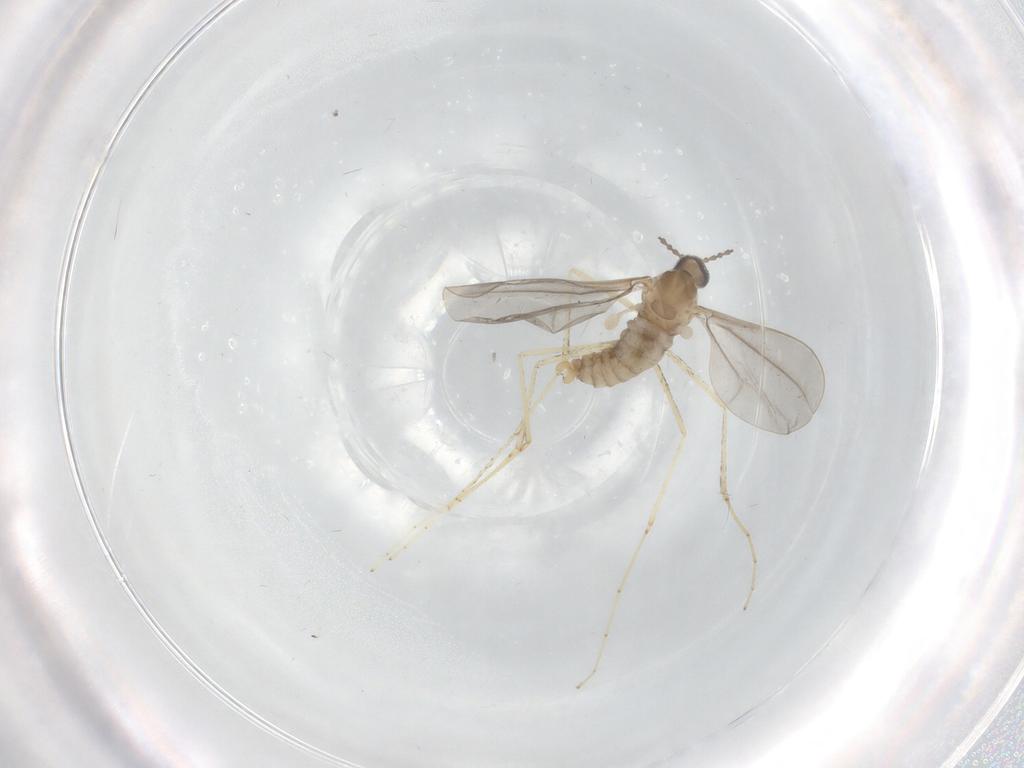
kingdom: Animalia
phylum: Arthropoda
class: Insecta
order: Diptera
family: Cecidomyiidae
